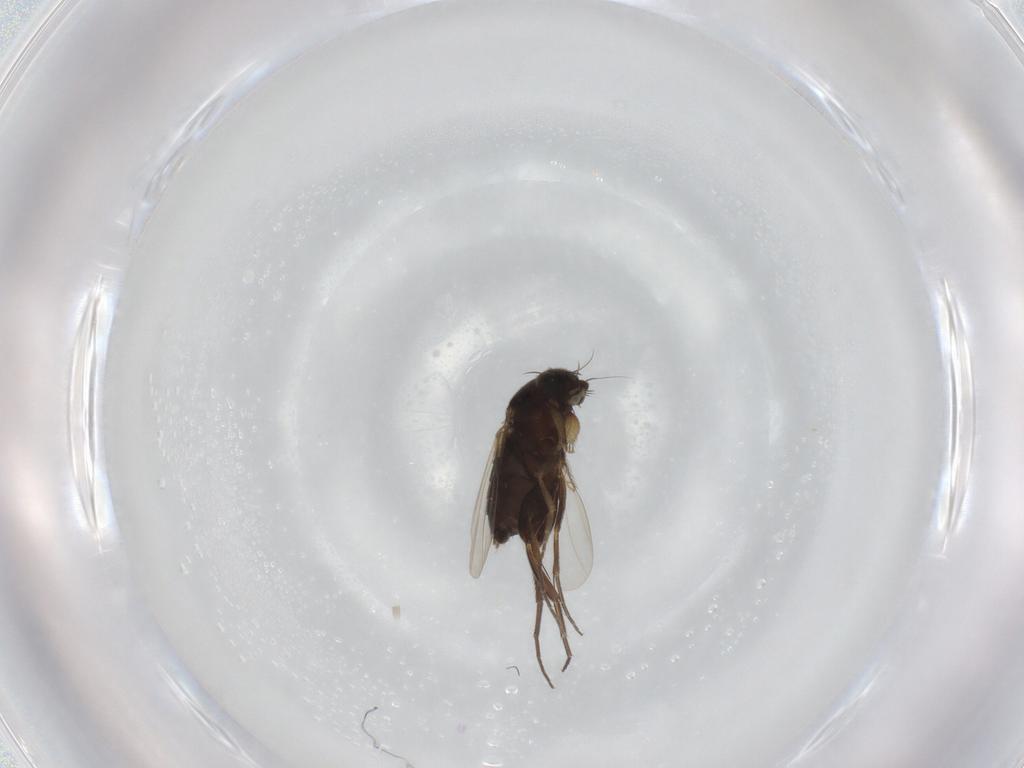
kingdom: Animalia
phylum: Arthropoda
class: Insecta
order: Diptera
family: Phoridae
